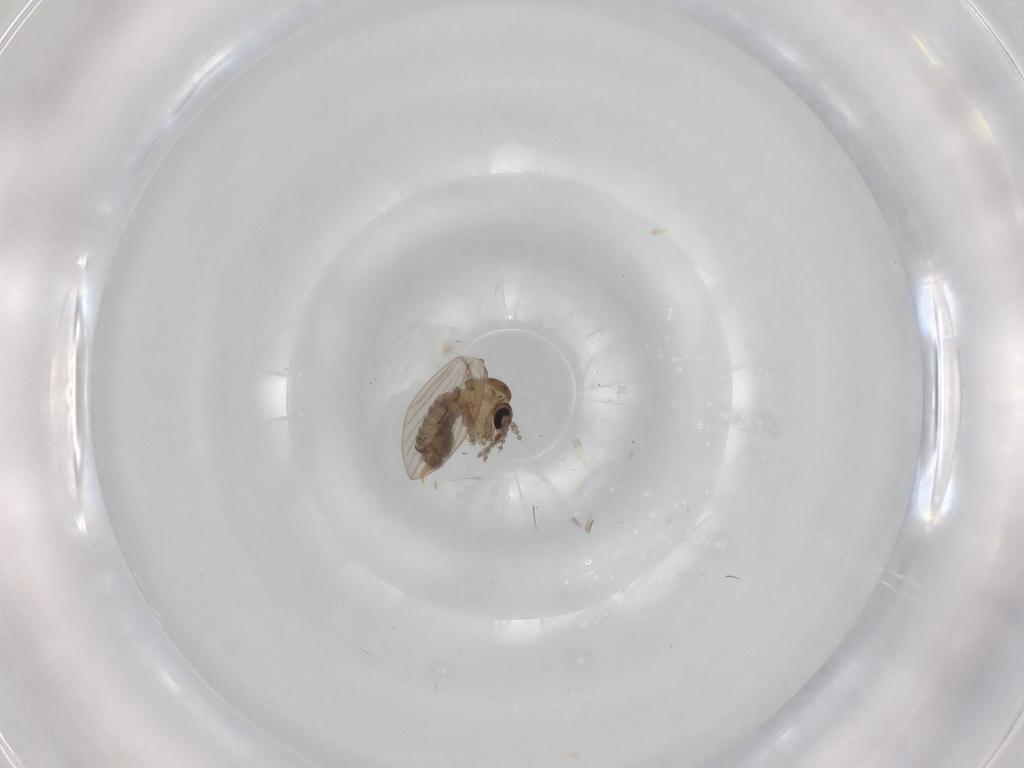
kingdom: Animalia
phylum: Arthropoda
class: Insecta
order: Diptera
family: Psychodidae
